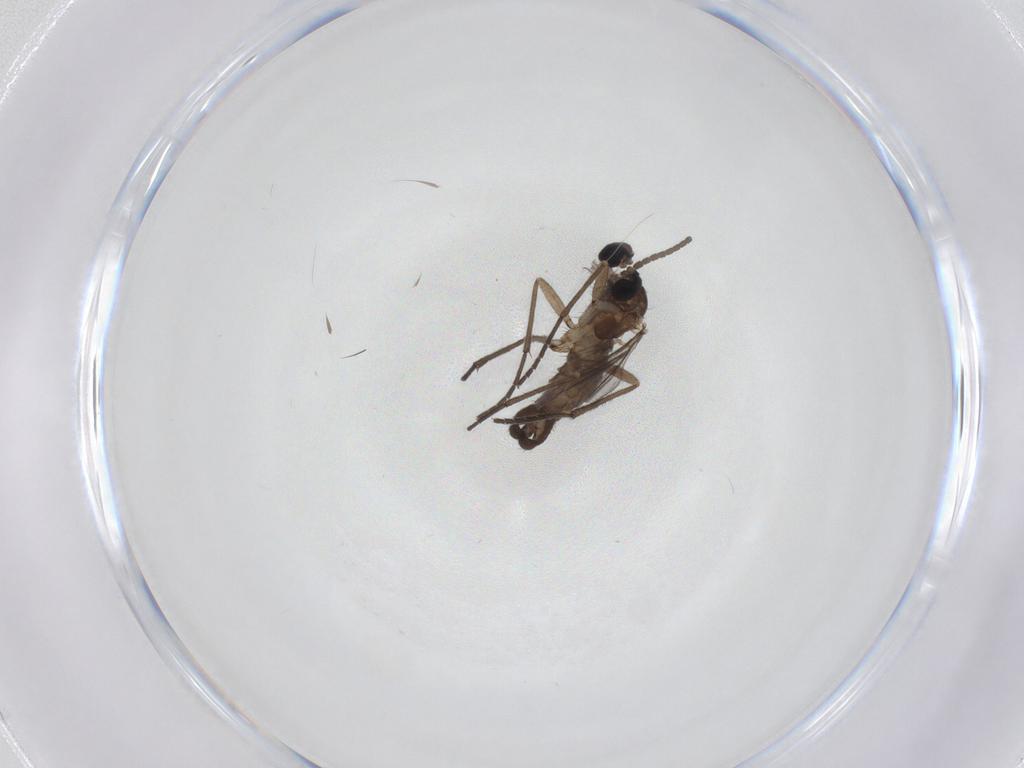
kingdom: Animalia
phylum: Arthropoda
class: Insecta
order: Diptera
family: Sciaridae
